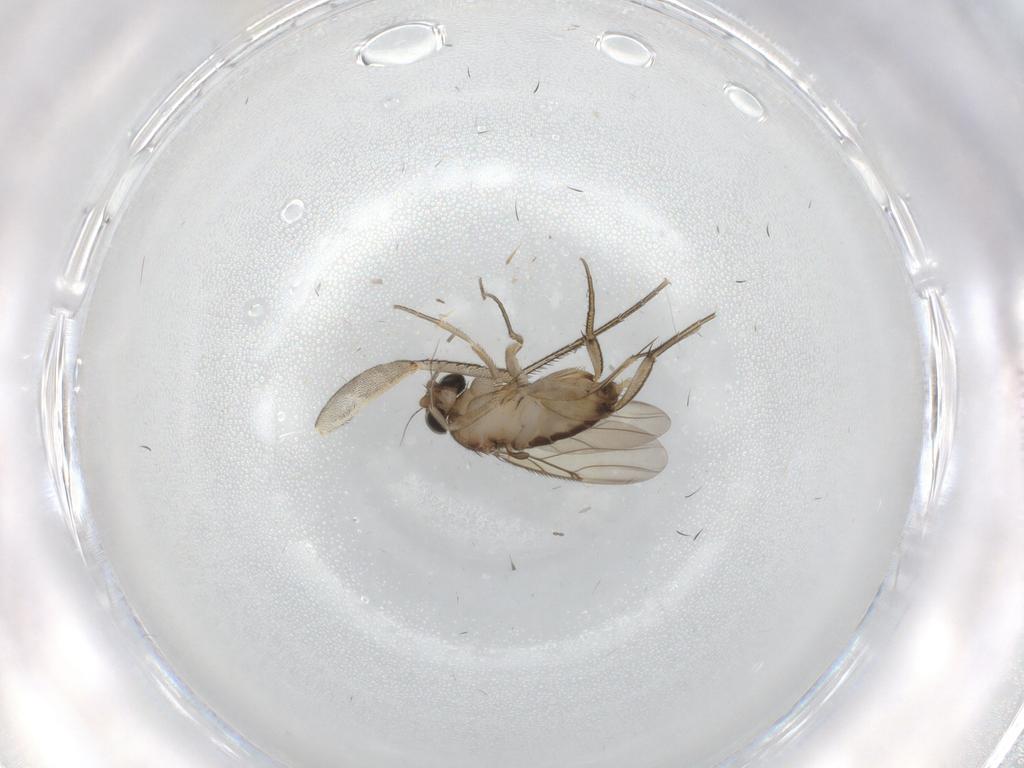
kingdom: Animalia
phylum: Arthropoda
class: Insecta
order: Diptera
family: Phoridae
